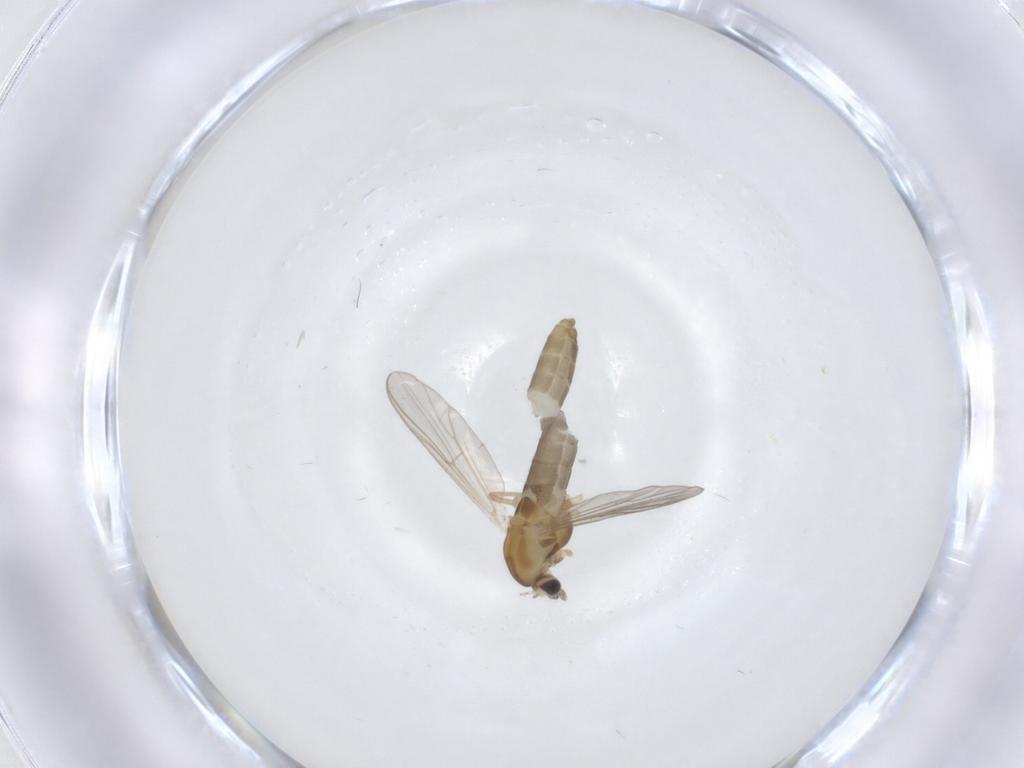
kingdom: Animalia
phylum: Arthropoda
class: Insecta
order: Diptera
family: Chironomidae
